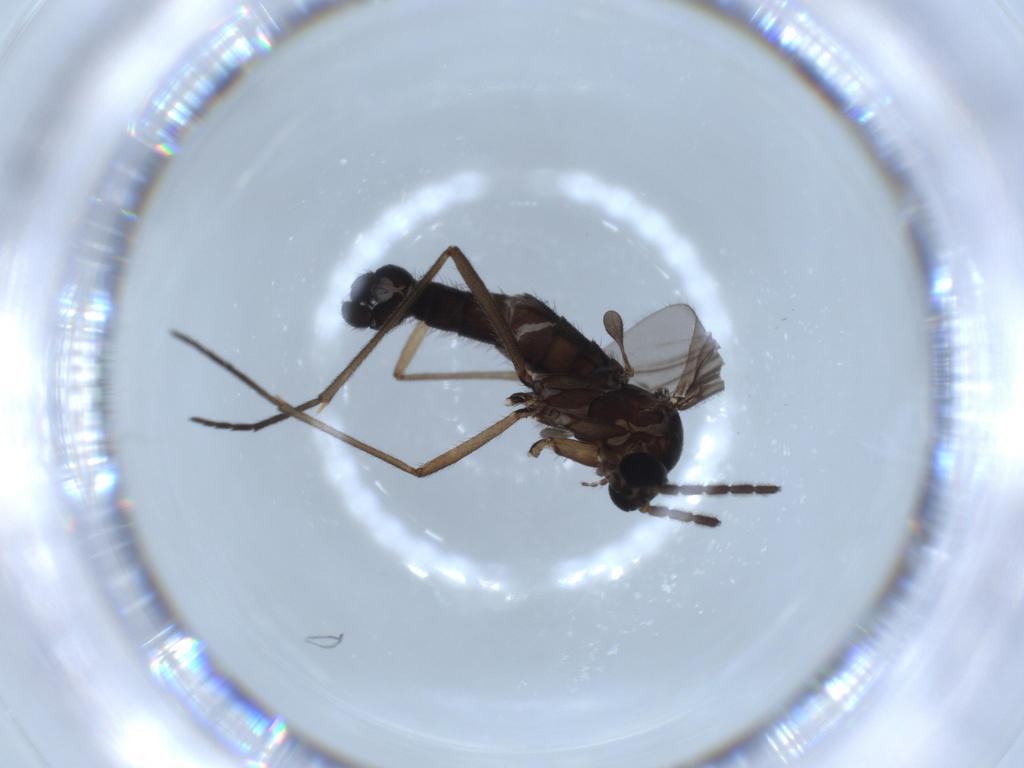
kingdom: Animalia
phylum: Arthropoda
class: Insecta
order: Diptera
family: Sciaridae
